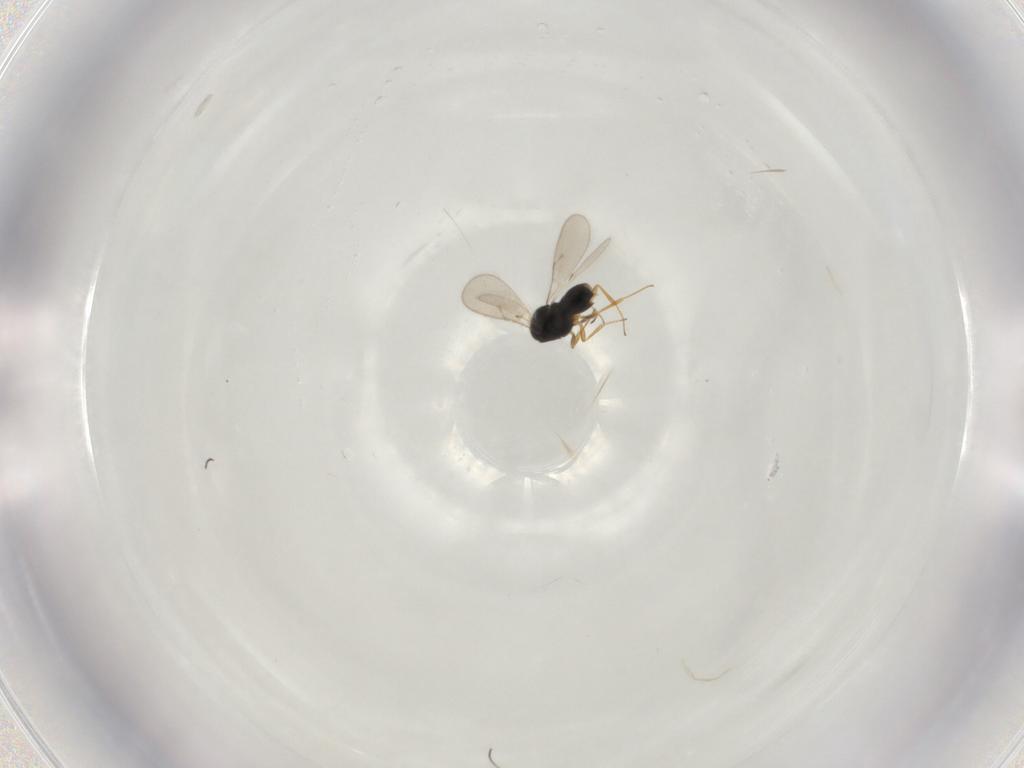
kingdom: Animalia
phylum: Arthropoda
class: Insecta
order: Hymenoptera
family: Scelionidae
